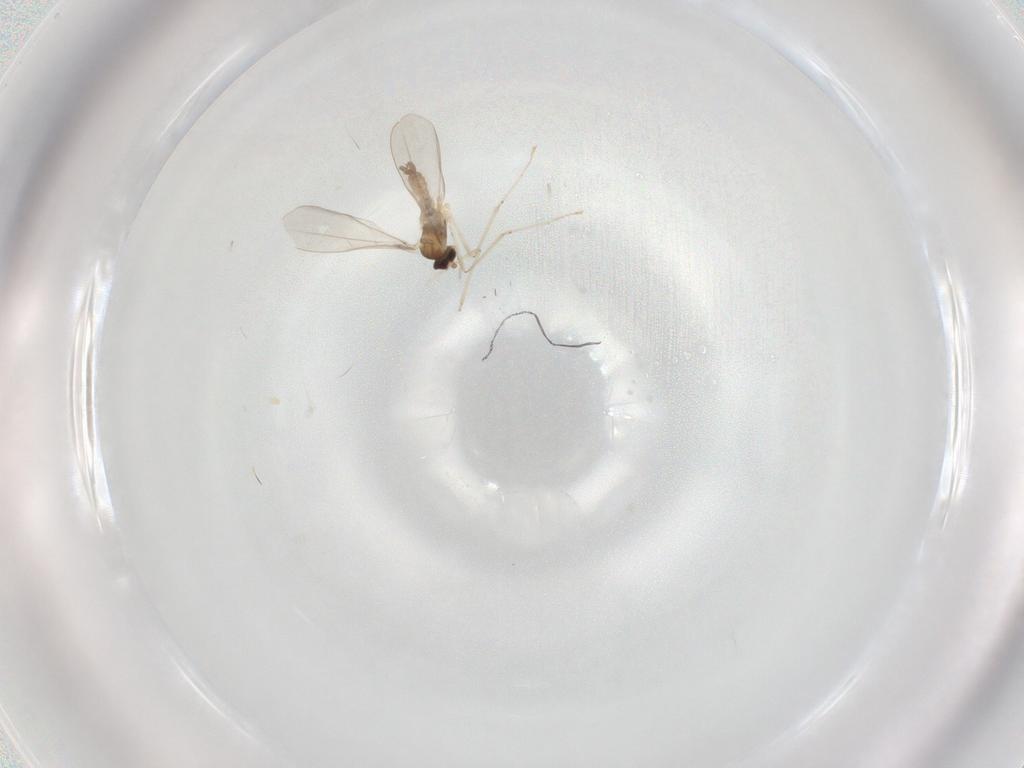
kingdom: Animalia
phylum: Arthropoda
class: Insecta
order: Diptera
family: Cecidomyiidae
